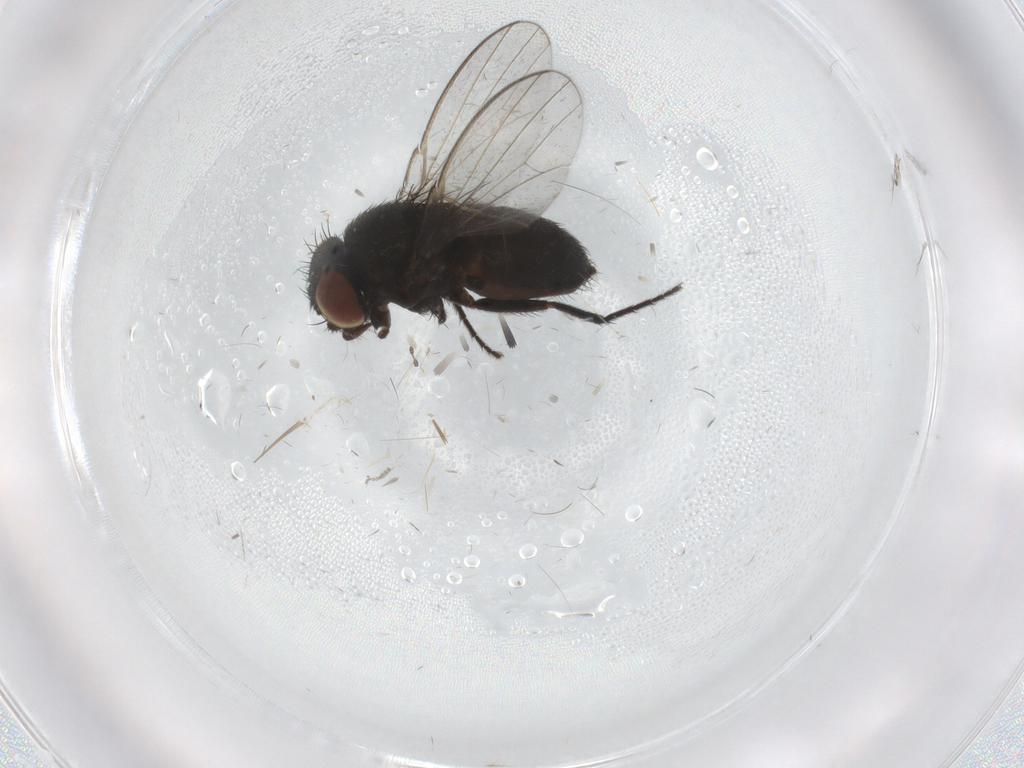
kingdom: Animalia
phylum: Arthropoda
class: Insecta
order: Diptera
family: Milichiidae
